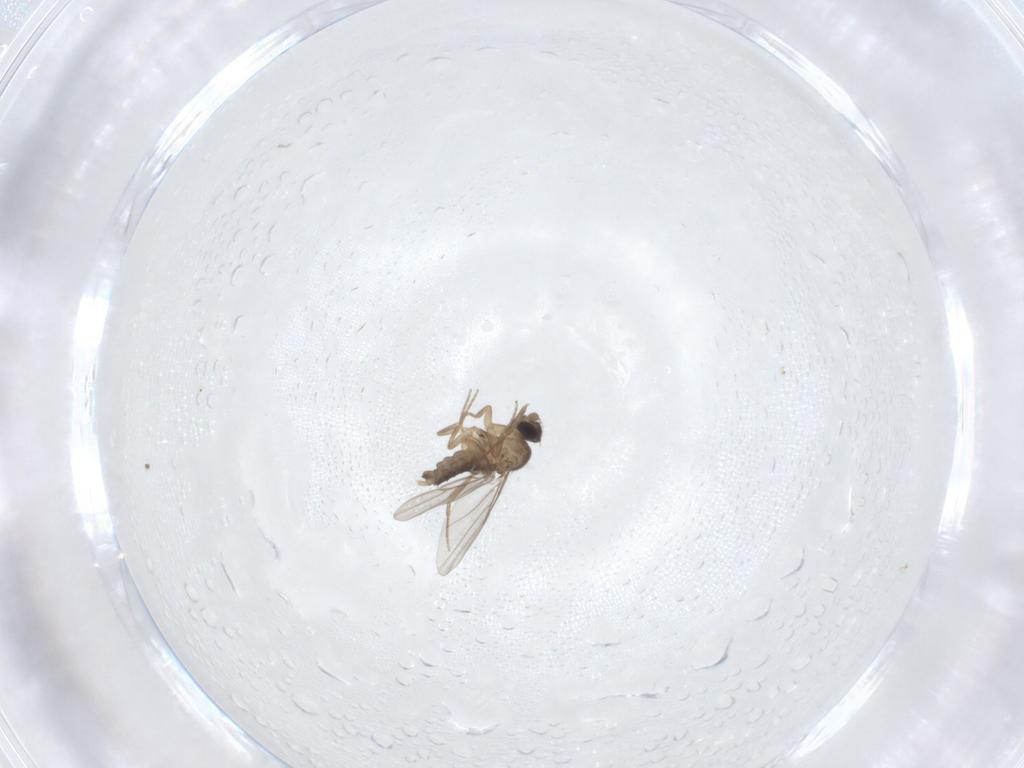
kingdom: Animalia
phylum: Arthropoda
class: Insecta
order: Diptera
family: Phoridae
